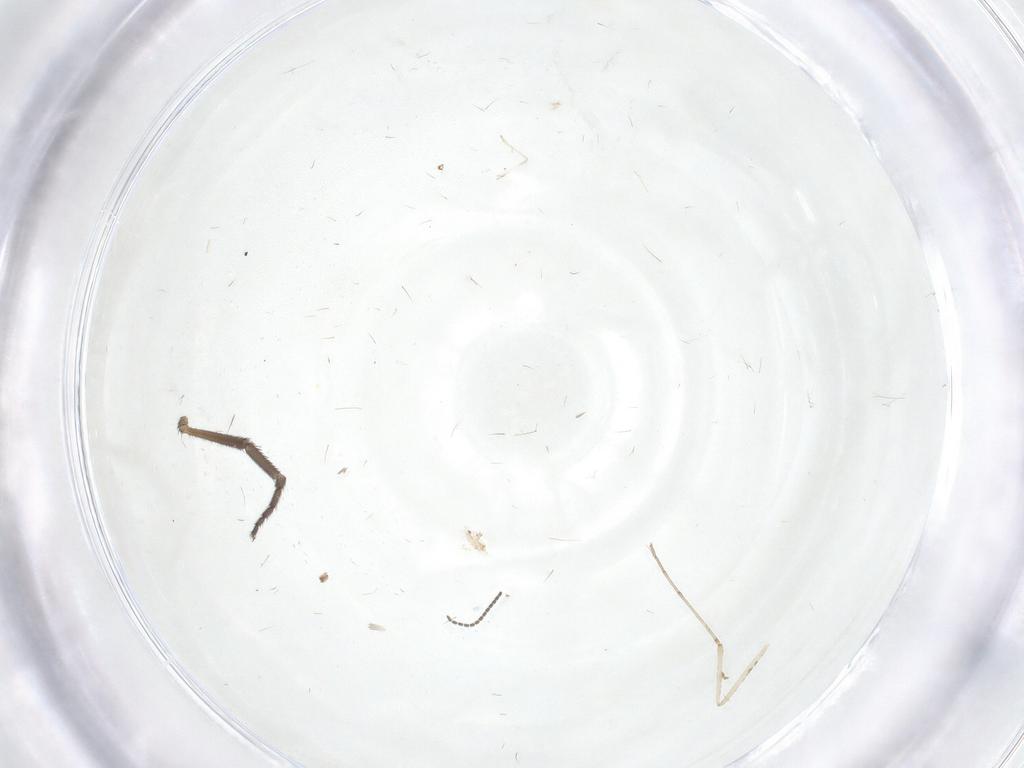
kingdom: Animalia
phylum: Arthropoda
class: Insecta
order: Diptera
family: Empididae
